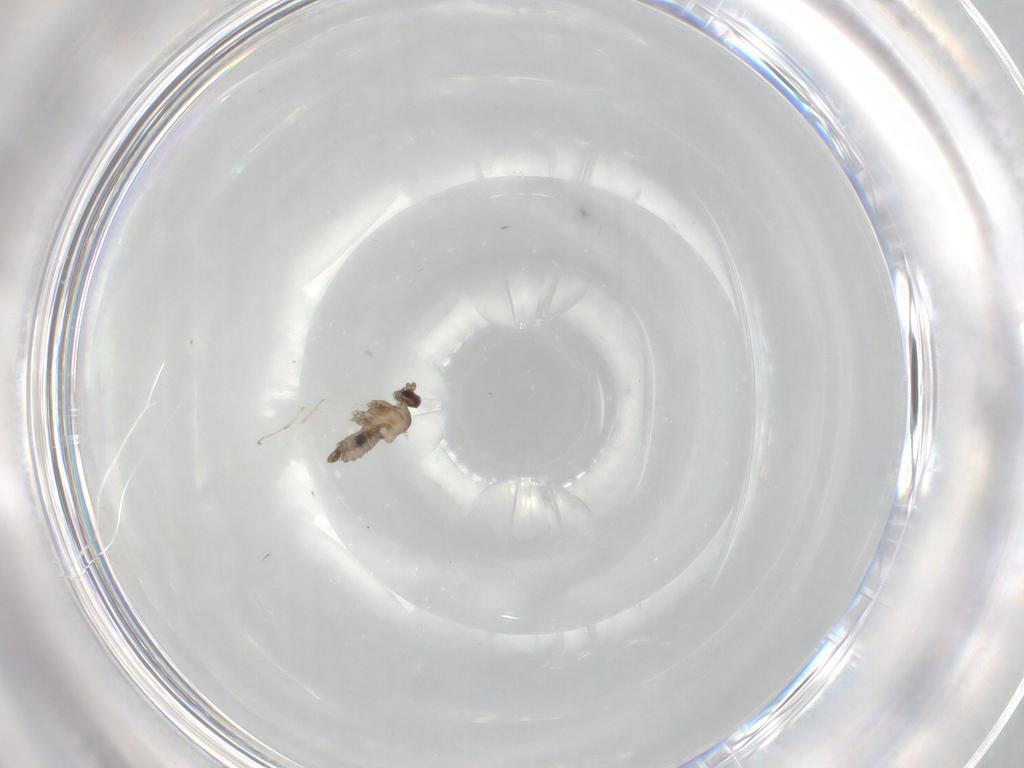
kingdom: Animalia
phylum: Arthropoda
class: Insecta
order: Diptera
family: Cecidomyiidae
